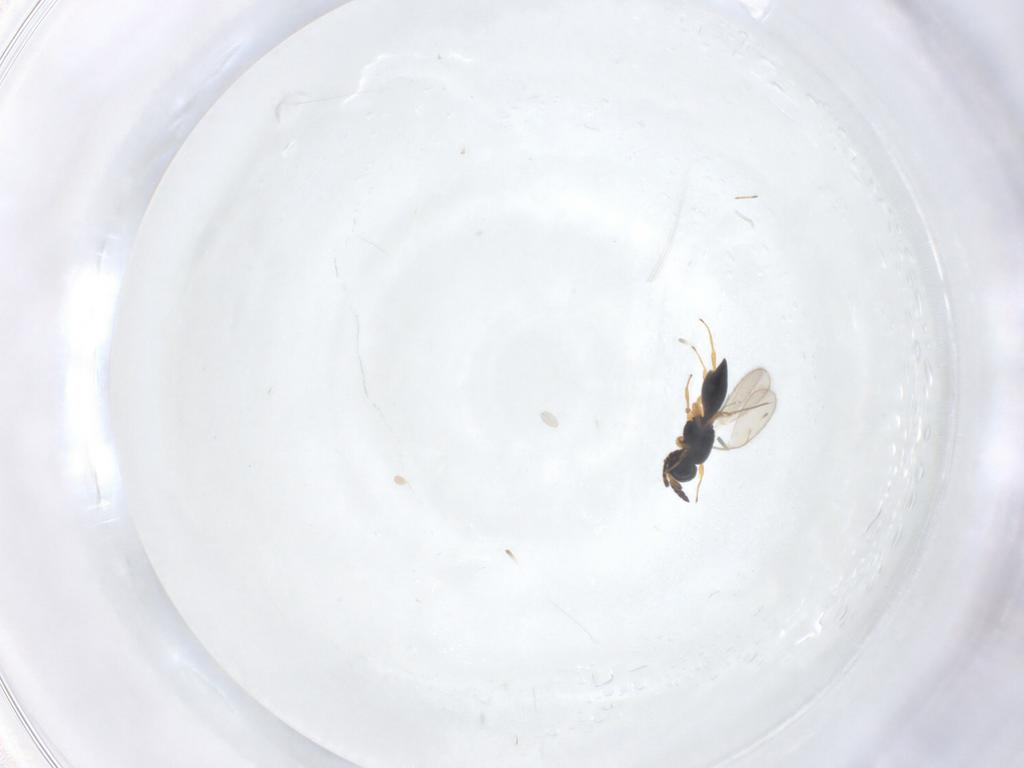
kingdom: Animalia
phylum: Arthropoda
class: Insecta
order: Hymenoptera
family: Scelionidae
